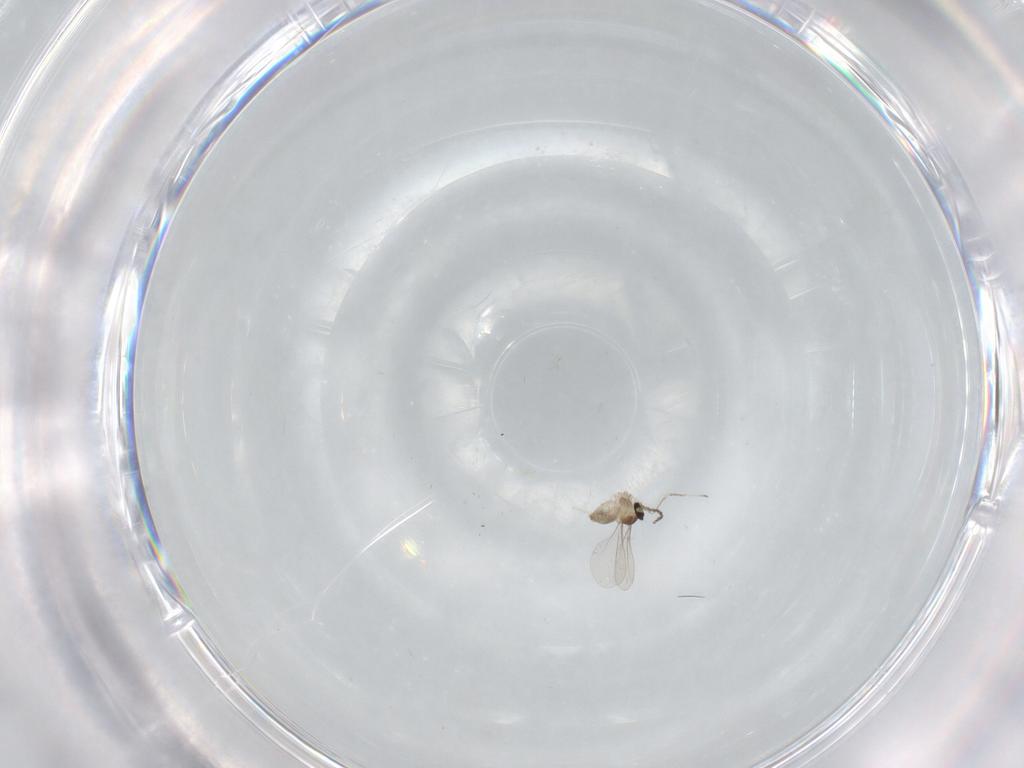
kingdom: Animalia
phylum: Arthropoda
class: Insecta
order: Diptera
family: Cecidomyiidae
